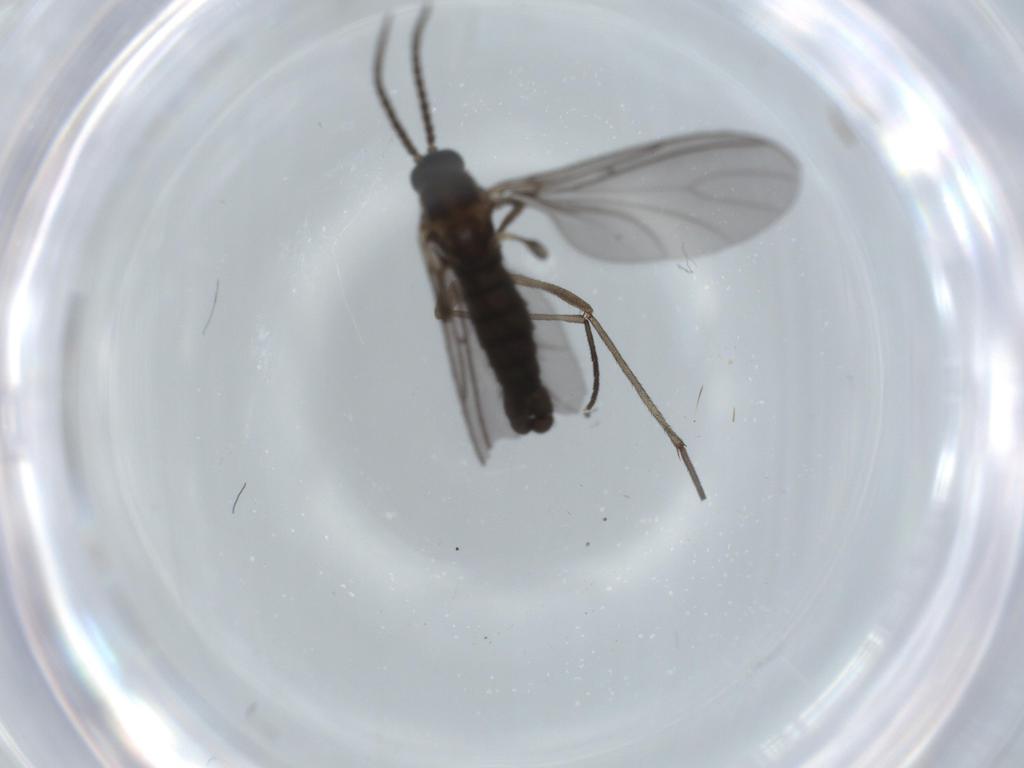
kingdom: Animalia
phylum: Arthropoda
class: Insecta
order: Diptera
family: Sciaridae
